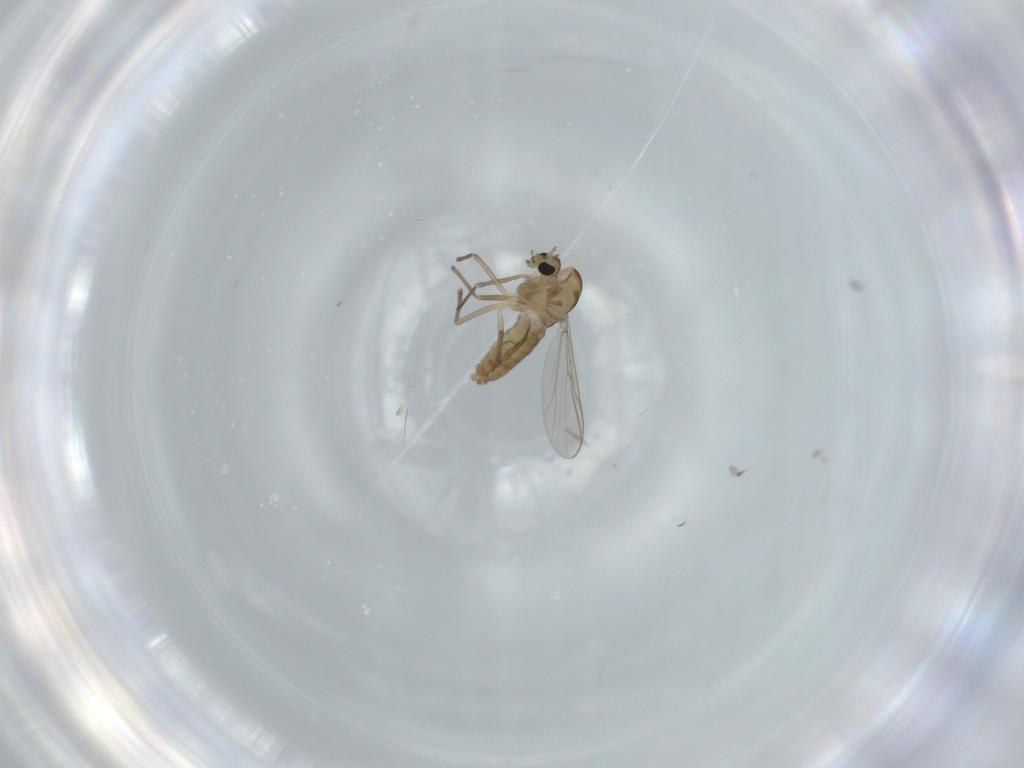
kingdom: Animalia
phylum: Arthropoda
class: Insecta
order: Diptera
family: Chironomidae
